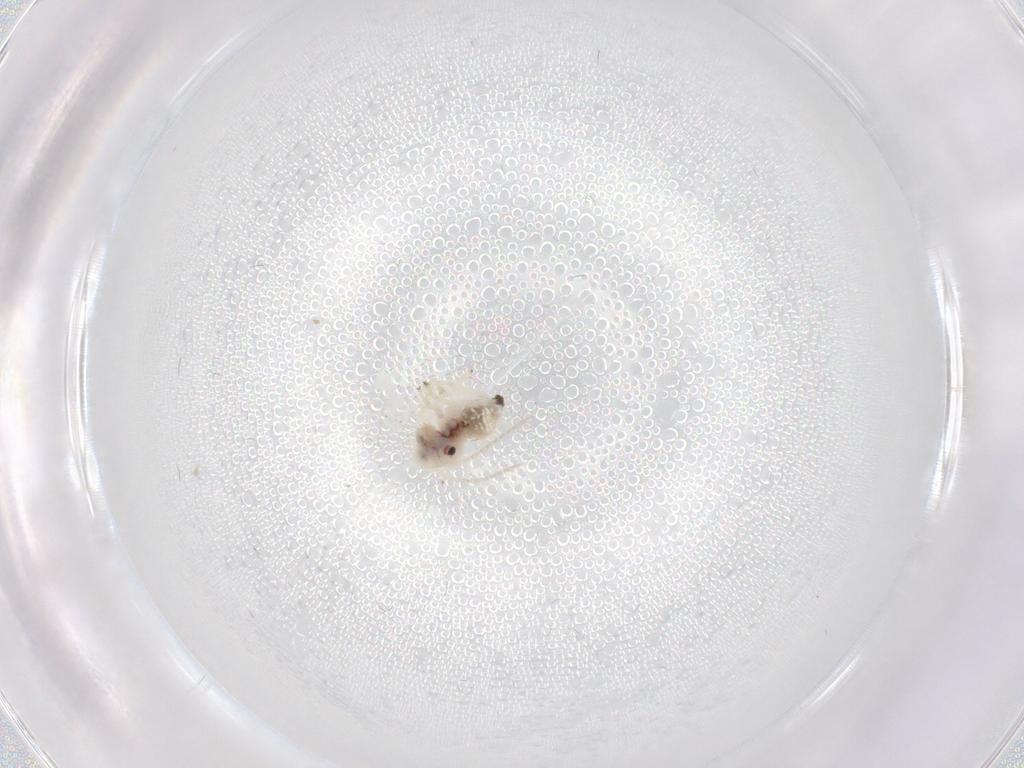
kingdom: Animalia
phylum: Arthropoda
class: Insecta
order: Psocodea
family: Amphipsocidae
